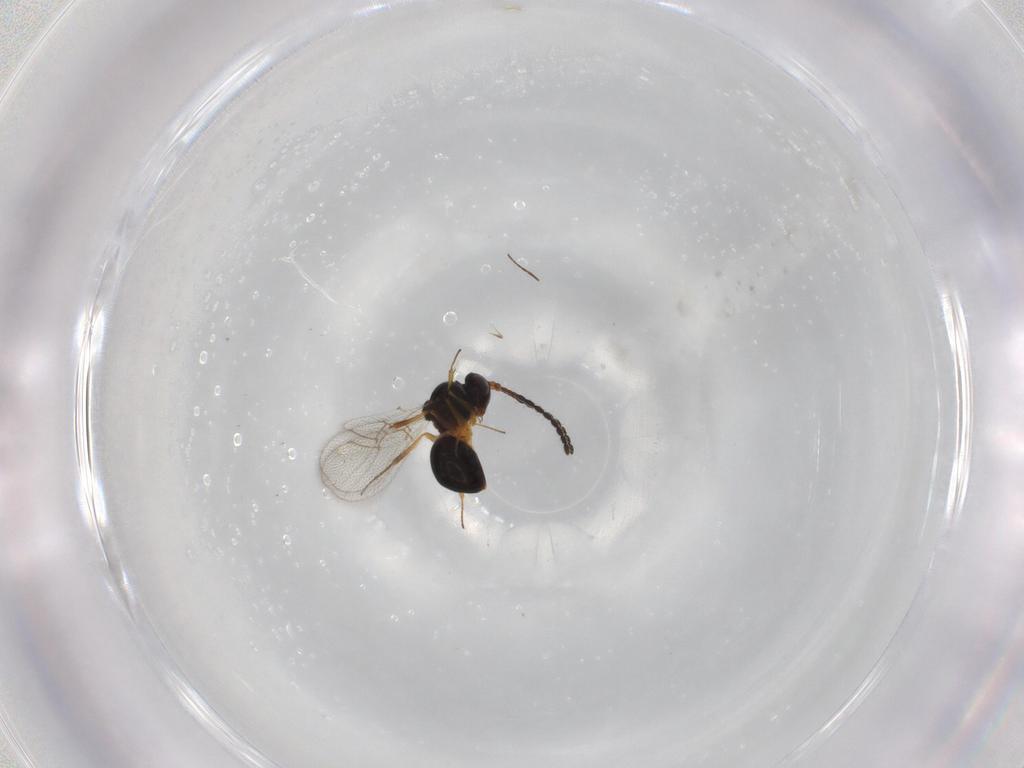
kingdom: Animalia
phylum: Arthropoda
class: Insecta
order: Hymenoptera
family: Figitidae
